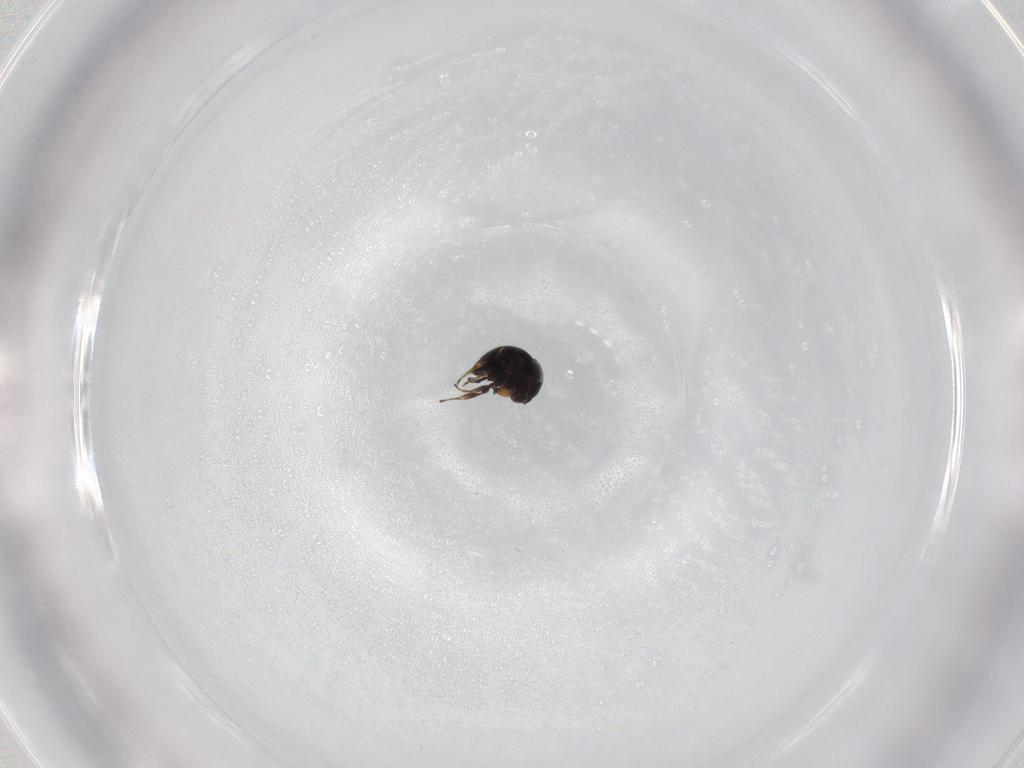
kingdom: Animalia
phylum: Arthropoda
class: Insecta
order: Hymenoptera
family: Scelionidae
